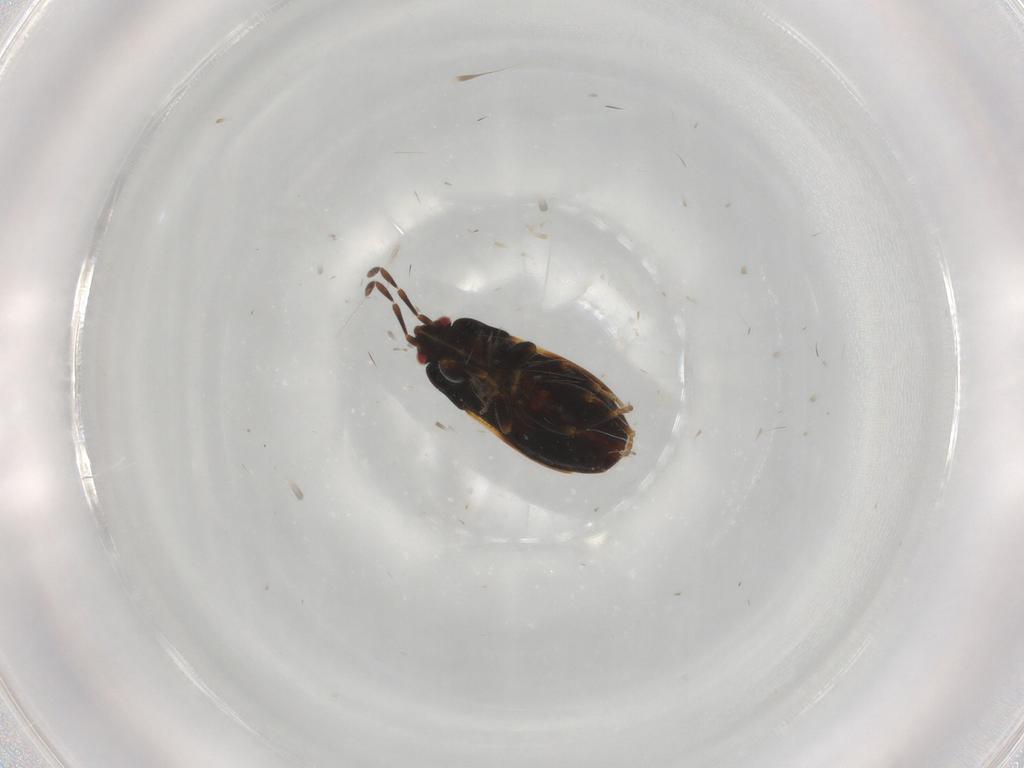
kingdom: Animalia
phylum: Arthropoda
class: Insecta
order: Hemiptera
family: Rhyparochromidae
